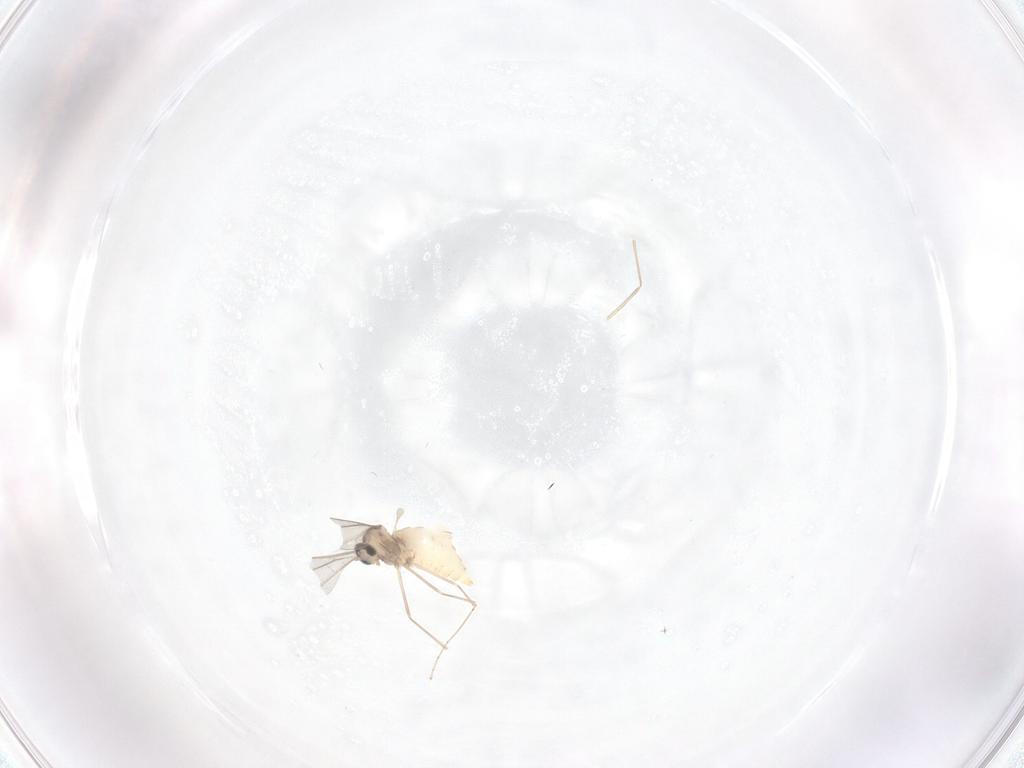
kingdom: Animalia
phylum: Arthropoda
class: Insecta
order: Diptera
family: Cecidomyiidae
